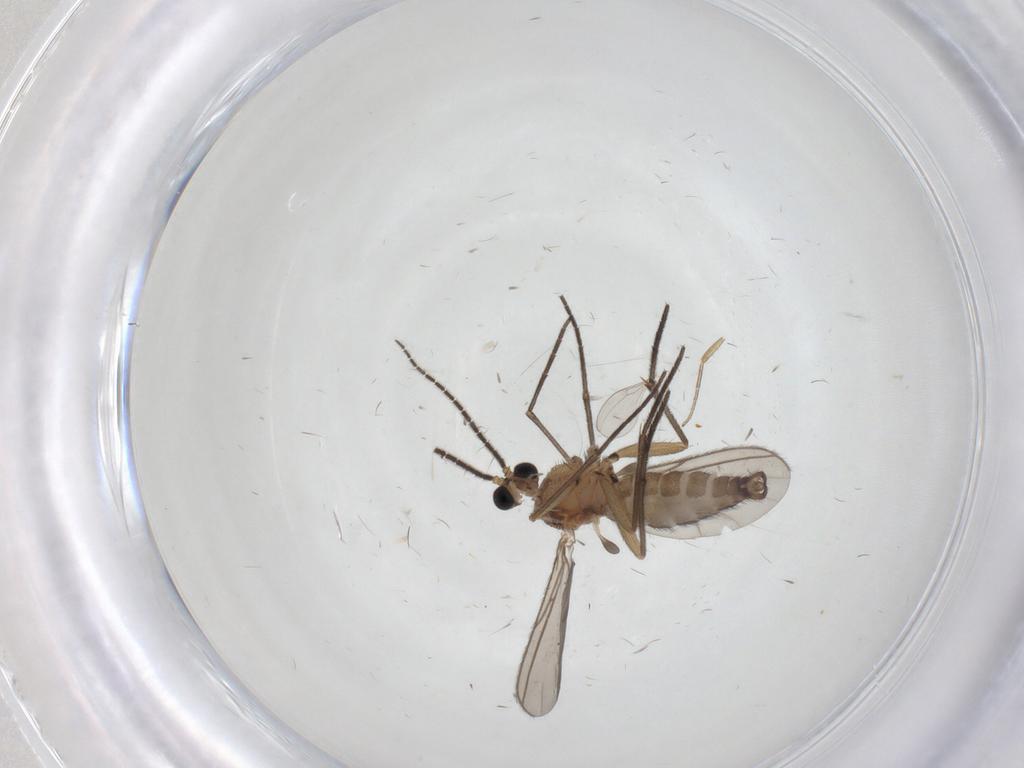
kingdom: Animalia
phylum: Arthropoda
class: Insecta
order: Diptera
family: Sciaridae
